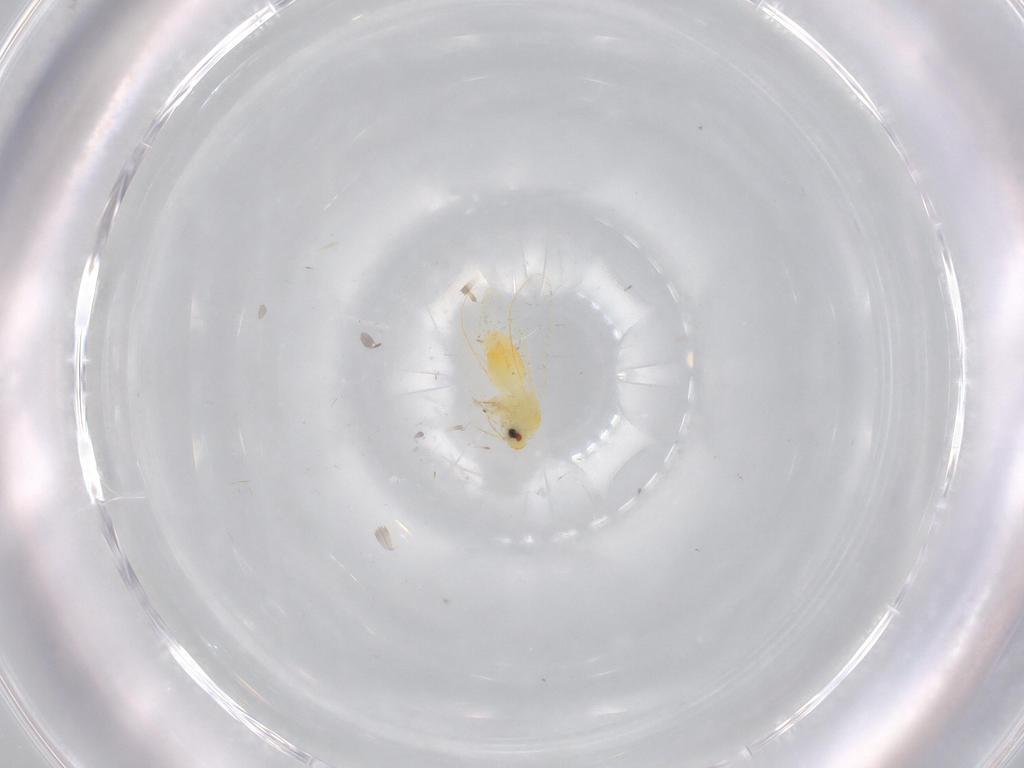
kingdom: Animalia
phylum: Arthropoda
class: Insecta
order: Hemiptera
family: Aleyrodidae
